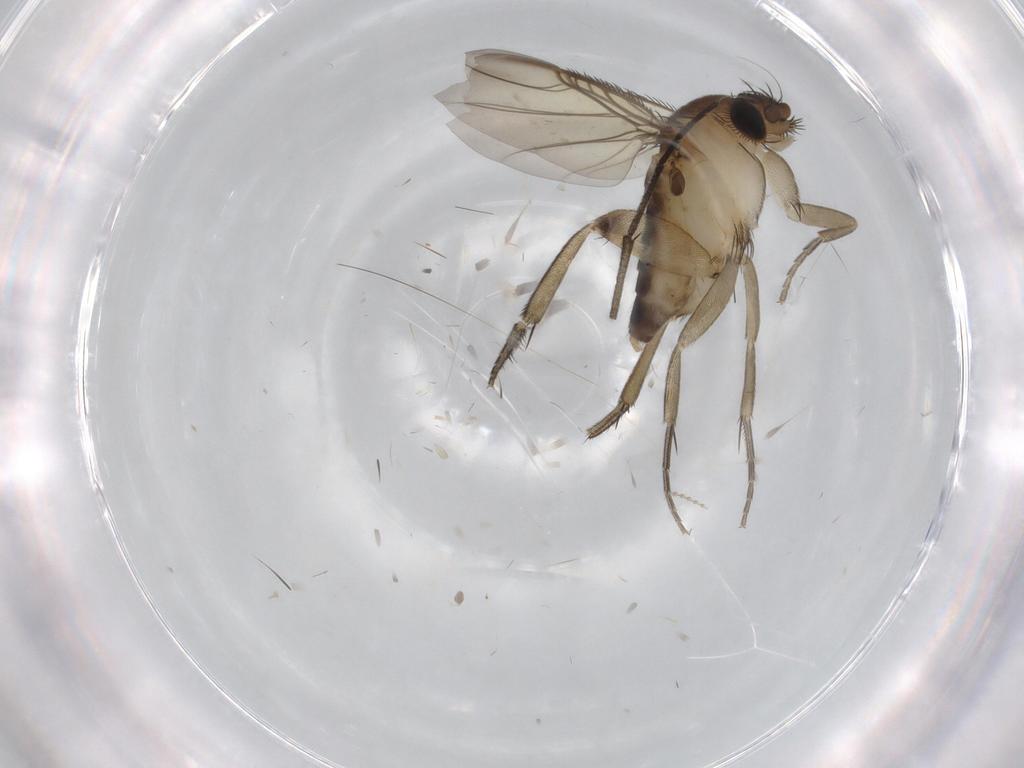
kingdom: Animalia
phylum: Arthropoda
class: Insecta
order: Diptera
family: Phoridae
